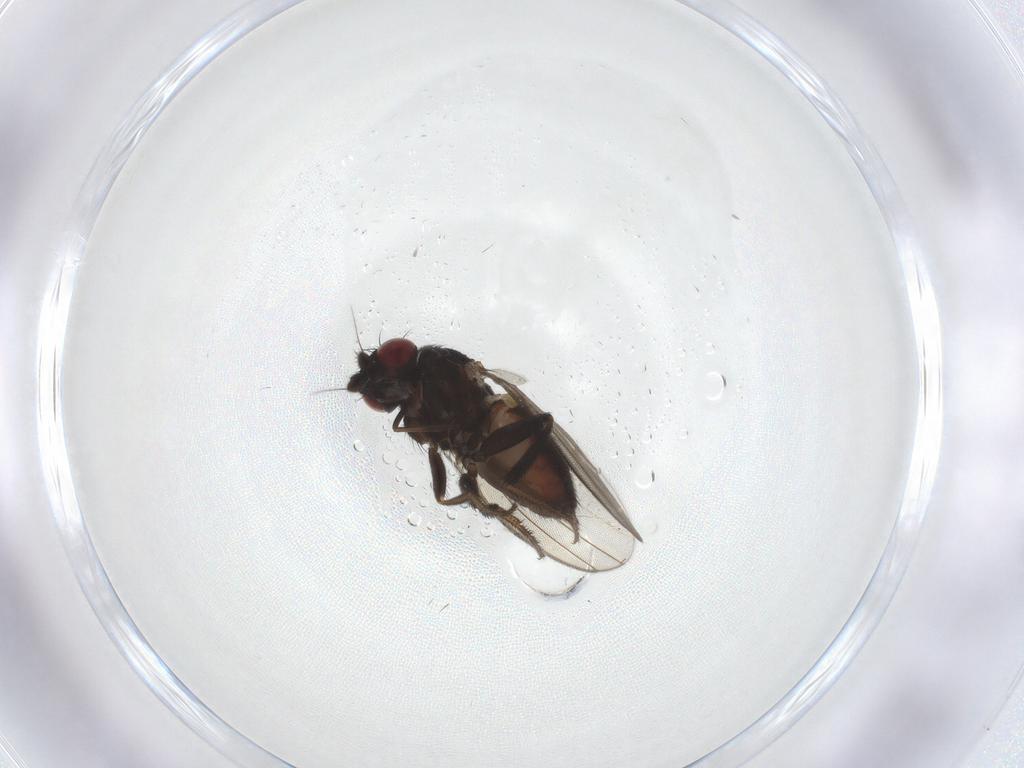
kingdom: Animalia
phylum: Arthropoda
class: Insecta
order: Diptera
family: Milichiidae
